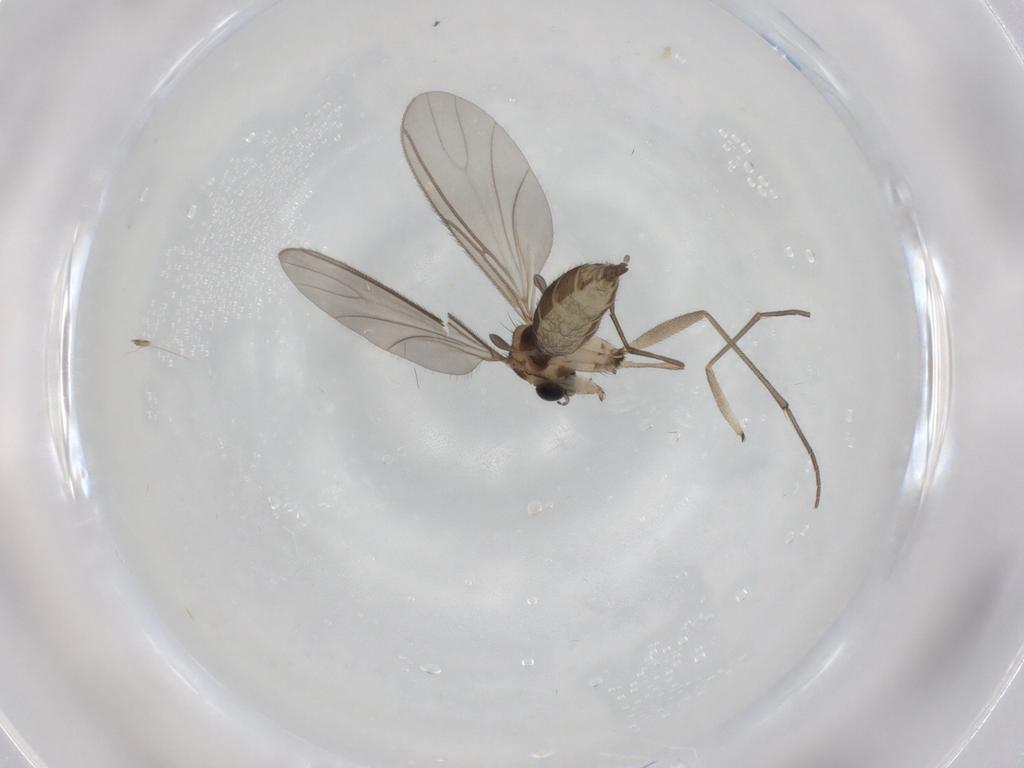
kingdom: Animalia
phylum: Arthropoda
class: Insecta
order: Diptera
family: Sciaridae
